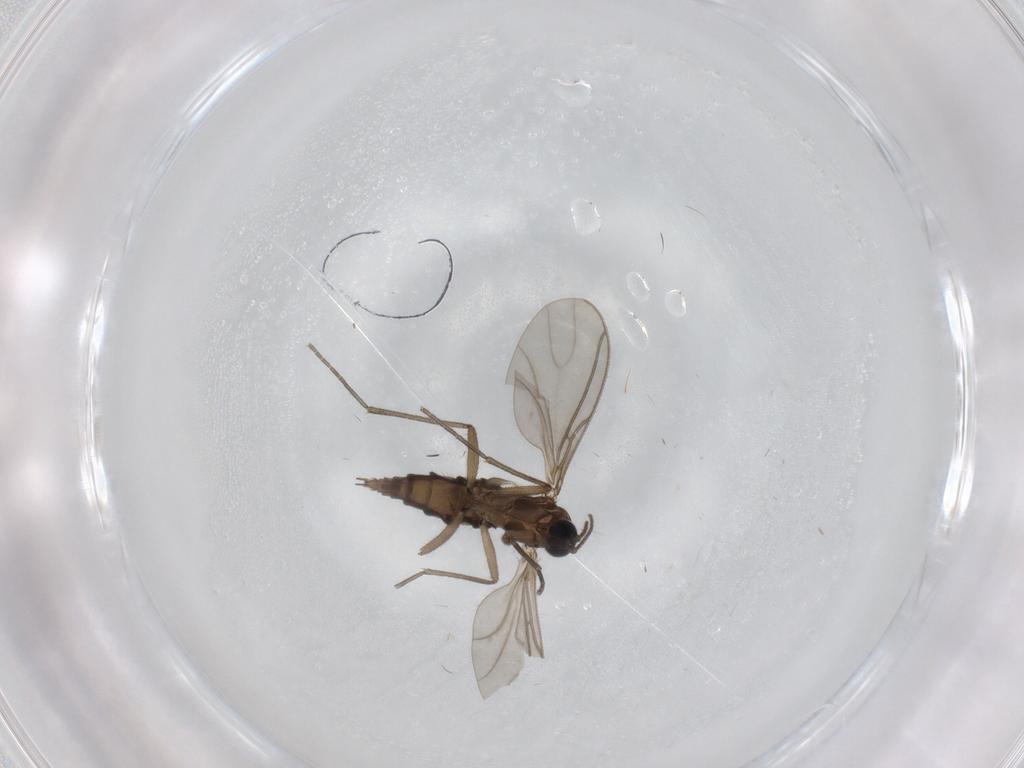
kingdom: Animalia
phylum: Arthropoda
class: Insecta
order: Diptera
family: Sciaridae
